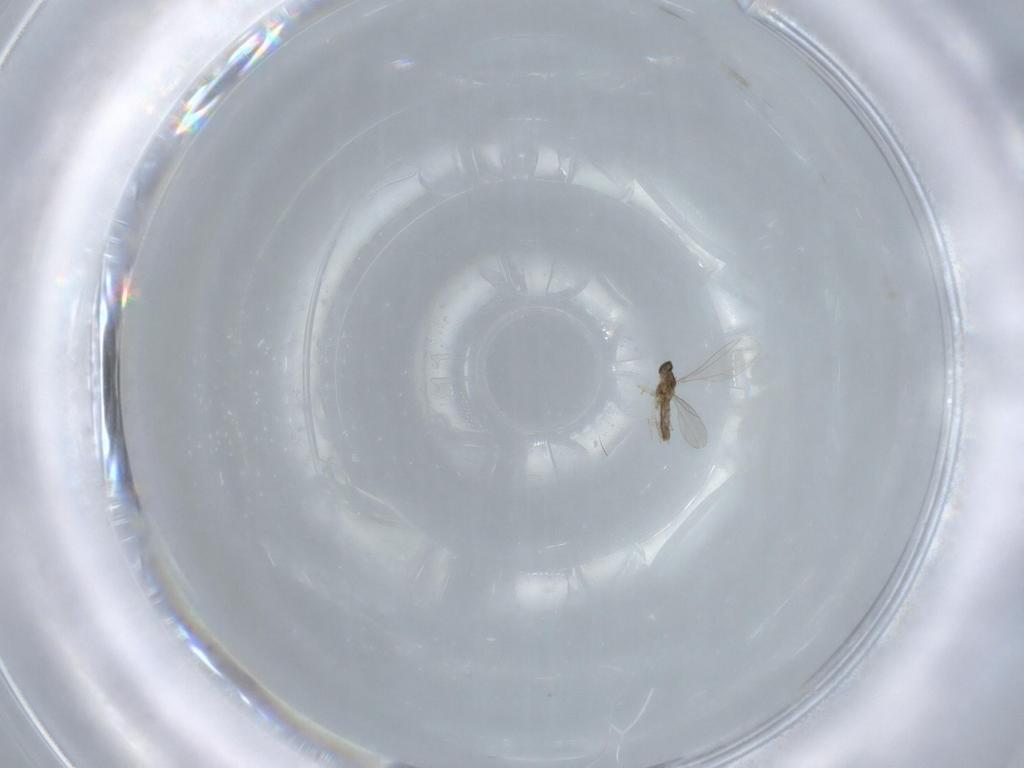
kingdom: Animalia
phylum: Arthropoda
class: Insecta
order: Diptera
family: Cecidomyiidae
